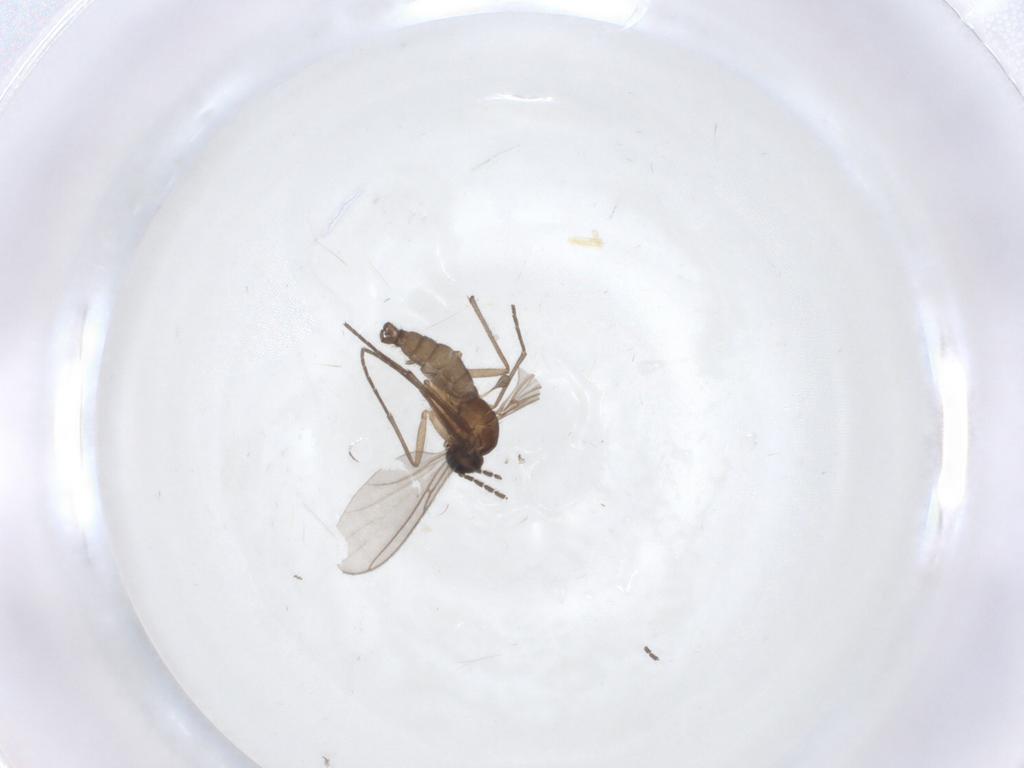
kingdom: Animalia
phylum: Arthropoda
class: Insecta
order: Diptera
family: Sciaridae
